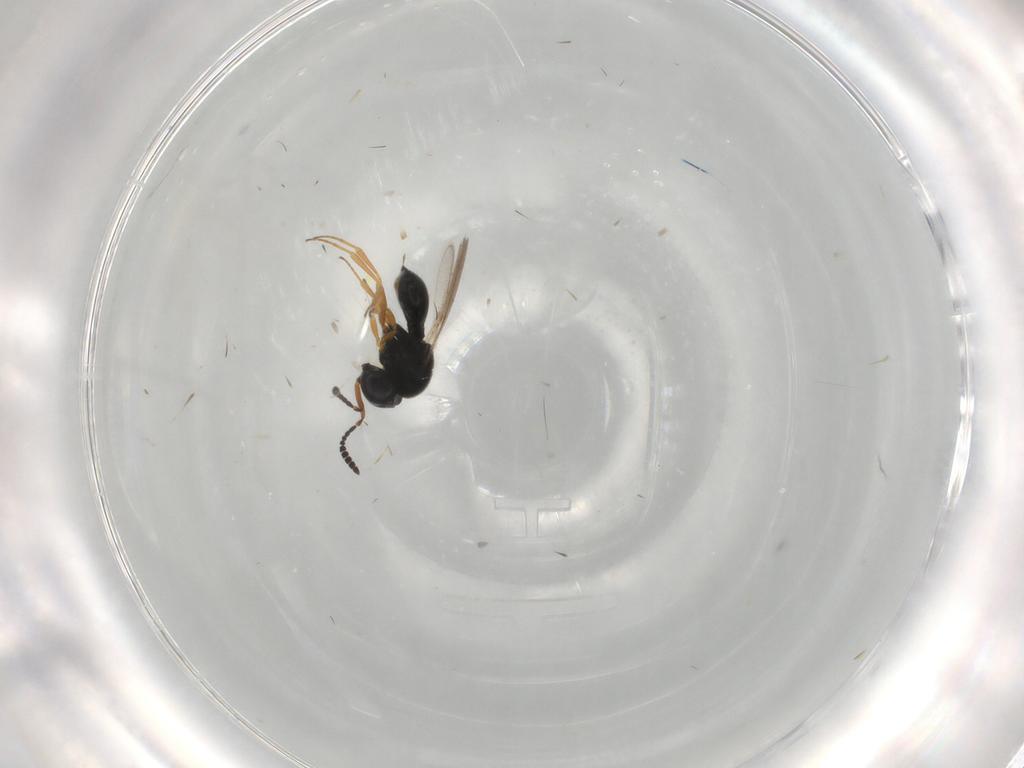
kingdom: Animalia
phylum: Arthropoda
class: Insecta
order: Hymenoptera
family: Scelionidae
